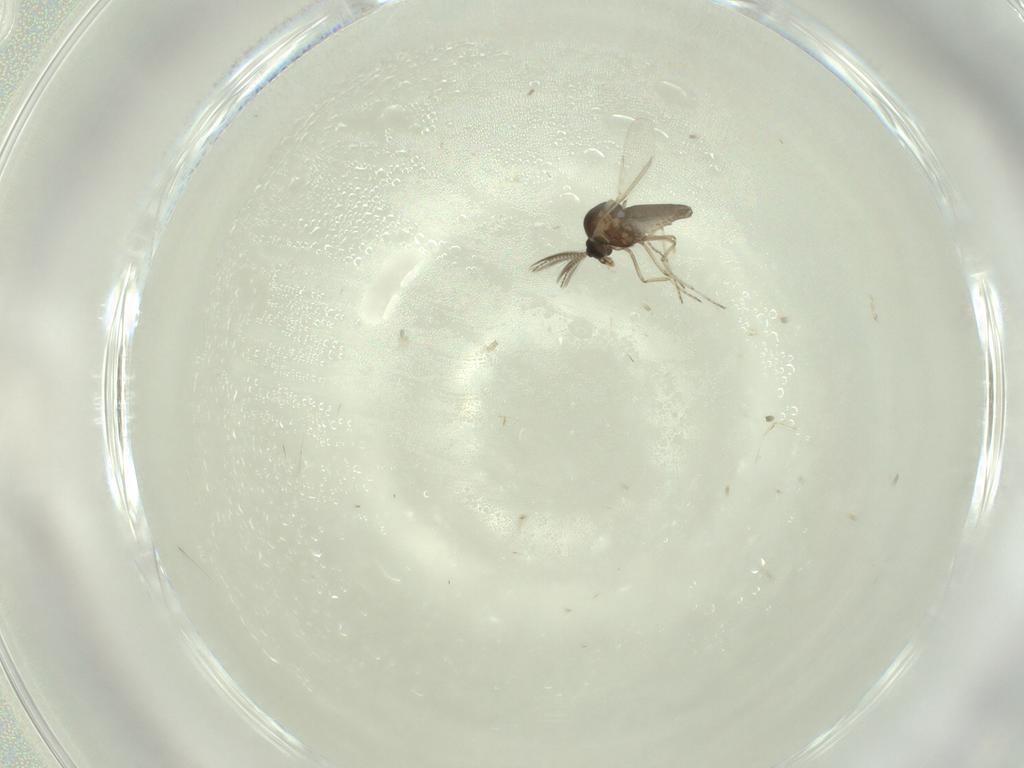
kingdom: Animalia
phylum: Arthropoda
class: Insecta
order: Diptera
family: Ceratopogonidae
